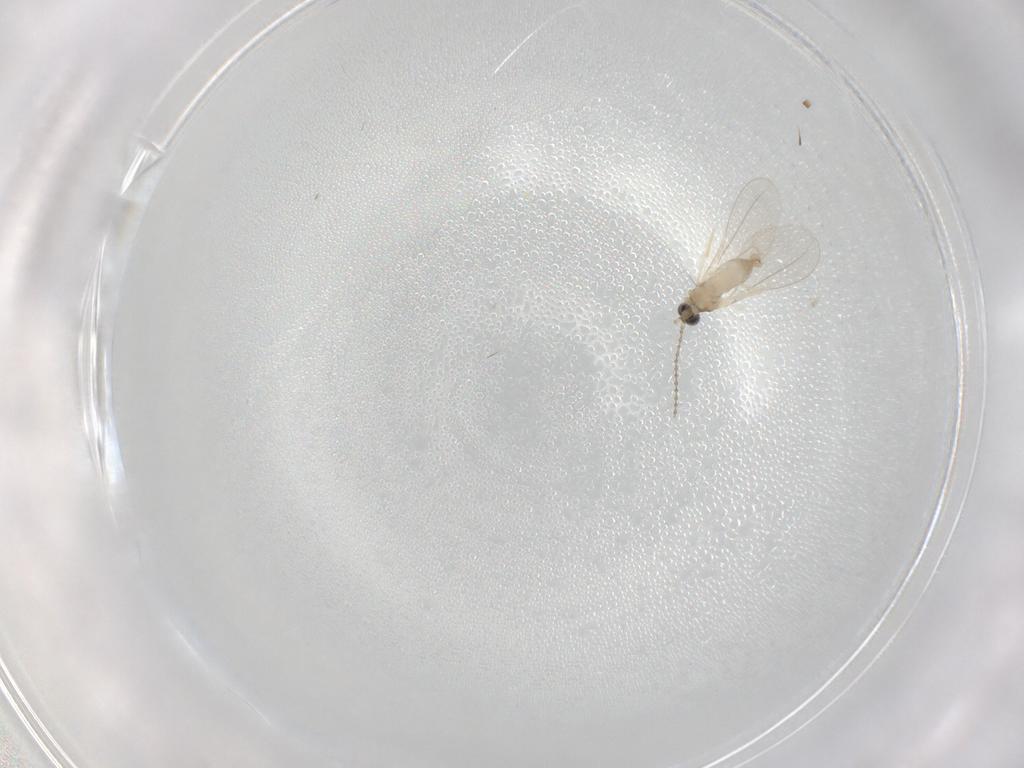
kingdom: Animalia
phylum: Arthropoda
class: Insecta
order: Diptera
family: Cecidomyiidae
